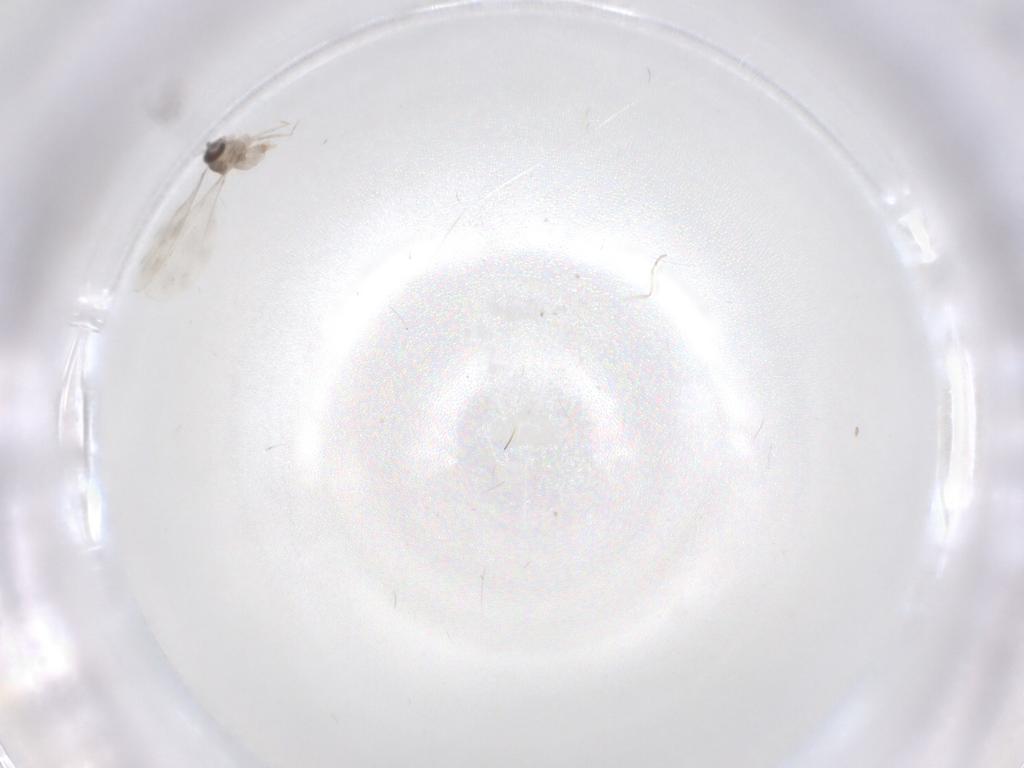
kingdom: Animalia
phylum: Arthropoda
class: Insecta
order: Diptera
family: Cecidomyiidae
